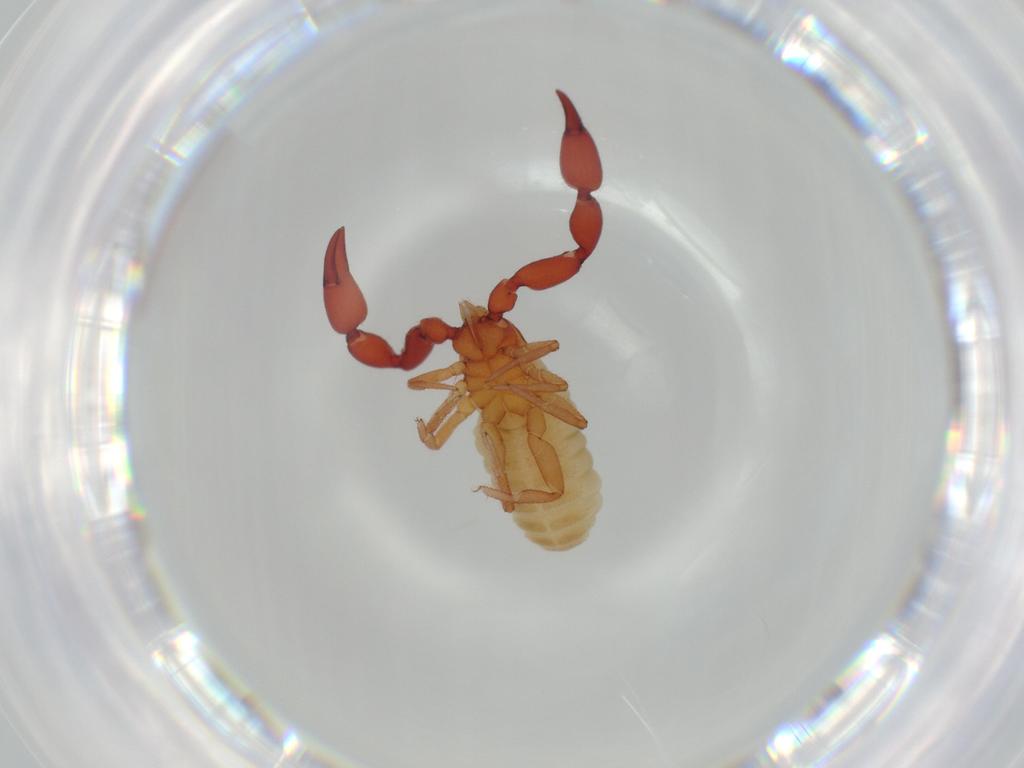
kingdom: Animalia
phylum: Arthropoda
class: Arachnida
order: Pseudoscorpiones
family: Chernetidae
